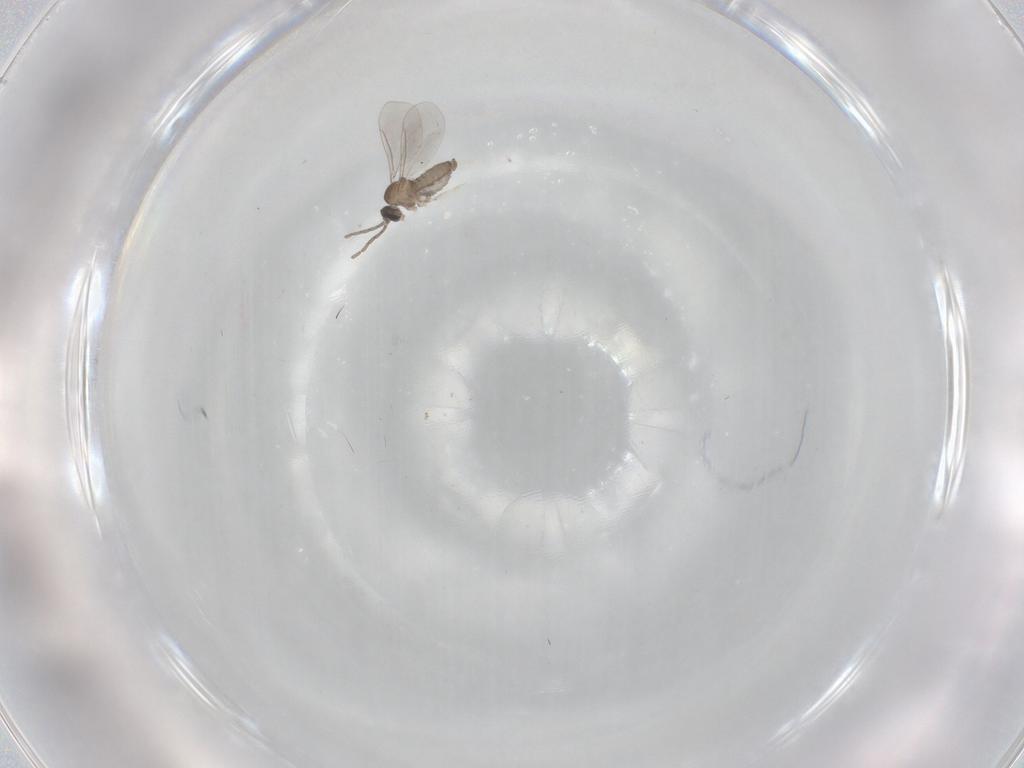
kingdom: Animalia
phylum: Arthropoda
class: Insecta
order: Diptera
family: Cecidomyiidae
